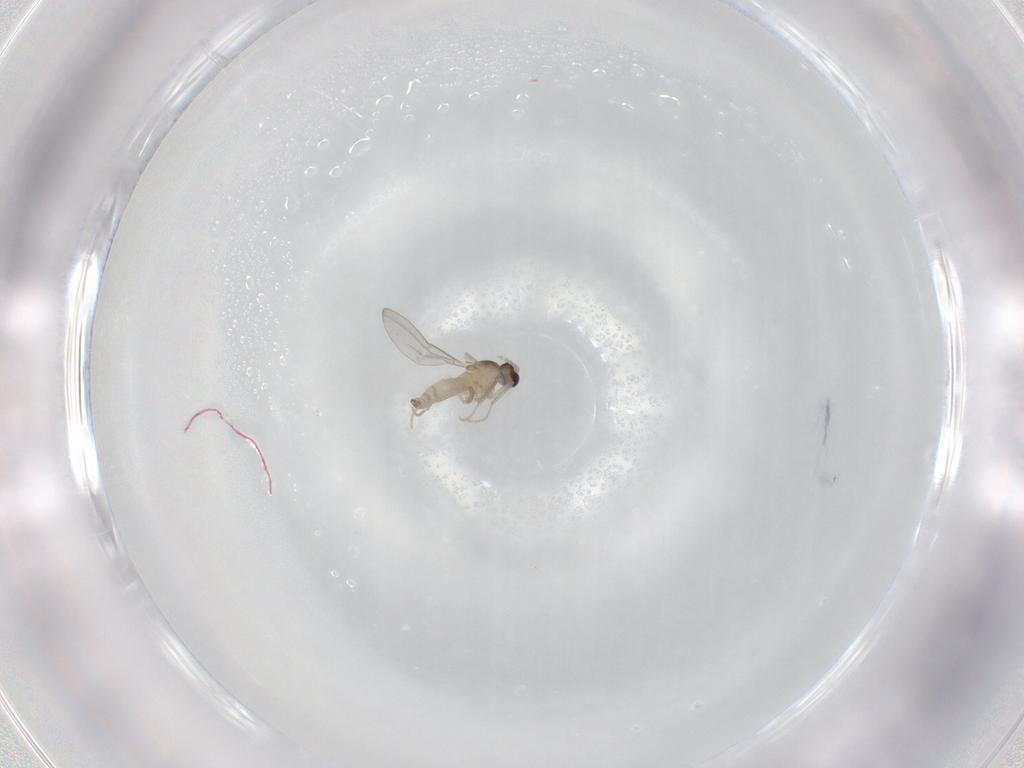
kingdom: Animalia
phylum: Arthropoda
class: Insecta
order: Diptera
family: Cecidomyiidae
